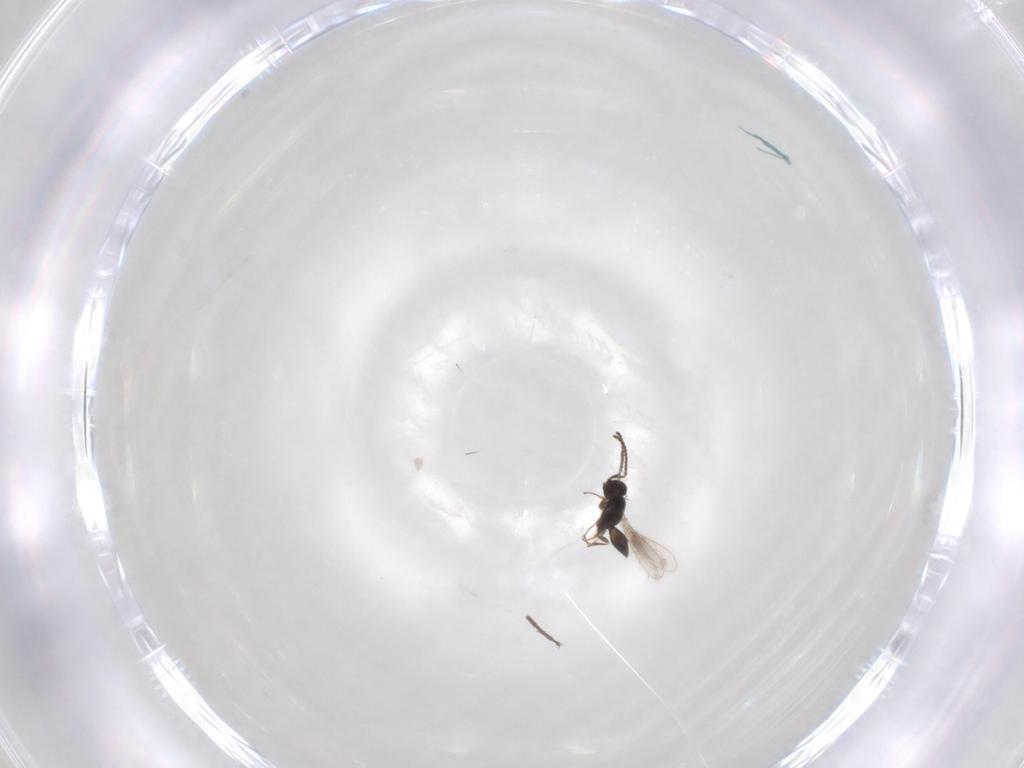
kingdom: Animalia
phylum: Arthropoda
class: Insecta
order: Hymenoptera
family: Scelionidae
